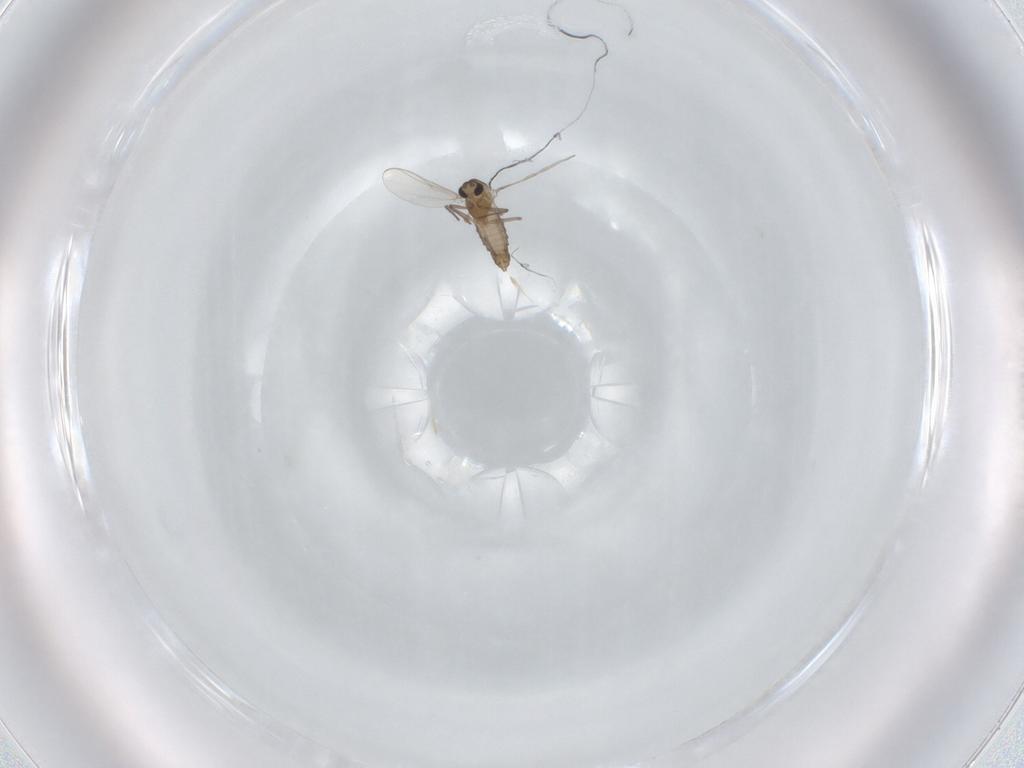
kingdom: Animalia
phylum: Arthropoda
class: Insecta
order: Diptera
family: Chironomidae
